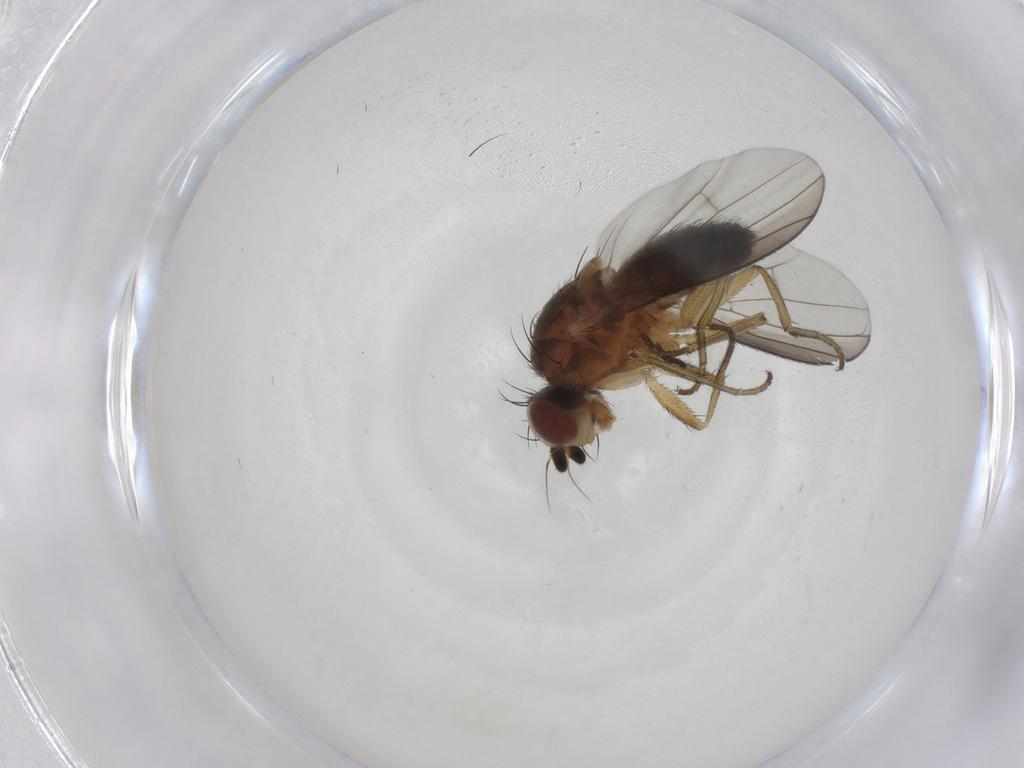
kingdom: Animalia
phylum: Arthropoda
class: Insecta
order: Diptera
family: Heleomyzidae
